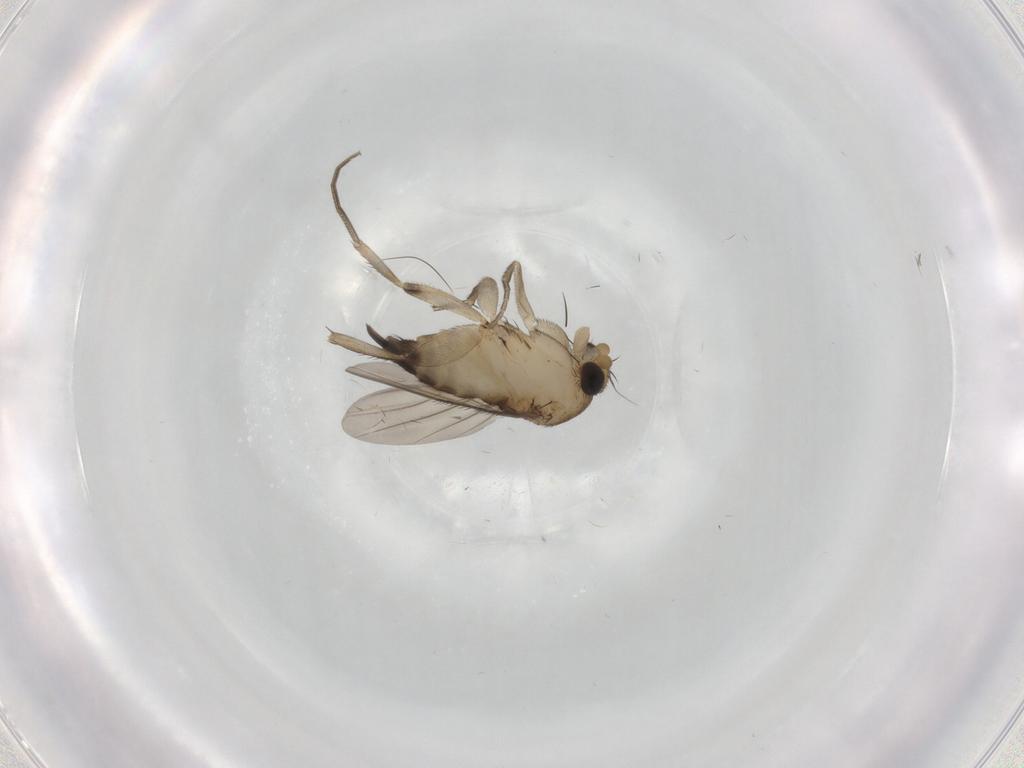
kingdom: Animalia
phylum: Arthropoda
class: Insecta
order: Diptera
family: Phoridae
